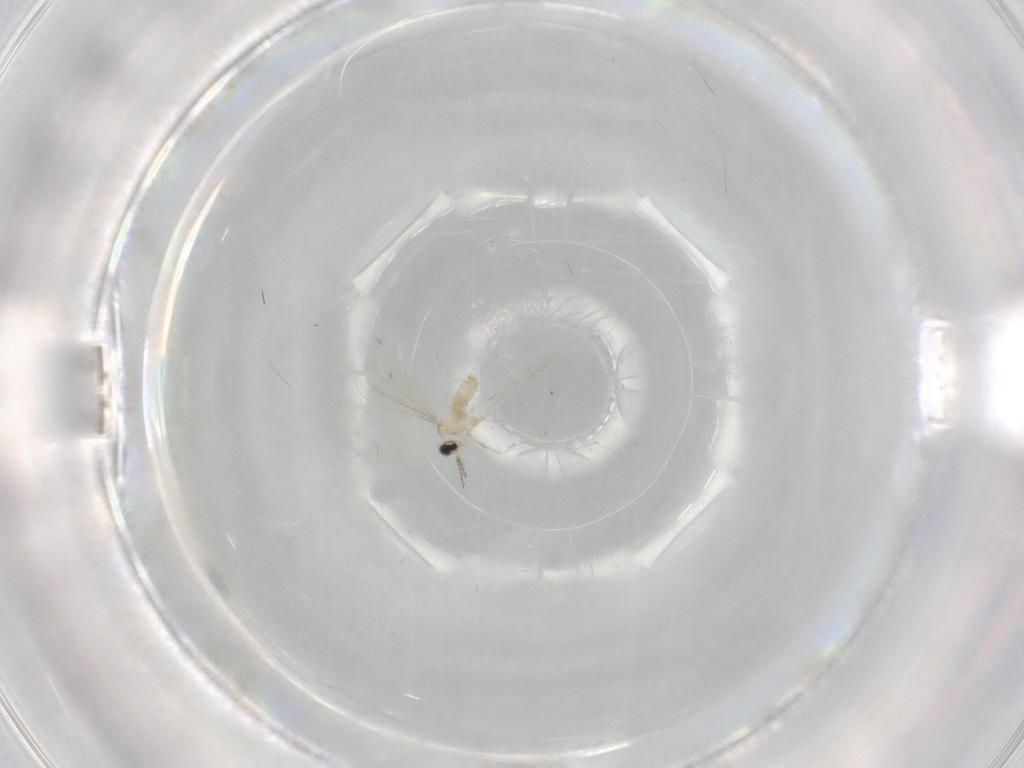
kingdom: Animalia
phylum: Arthropoda
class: Insecta
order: Diptera
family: Cecidomyiidae
